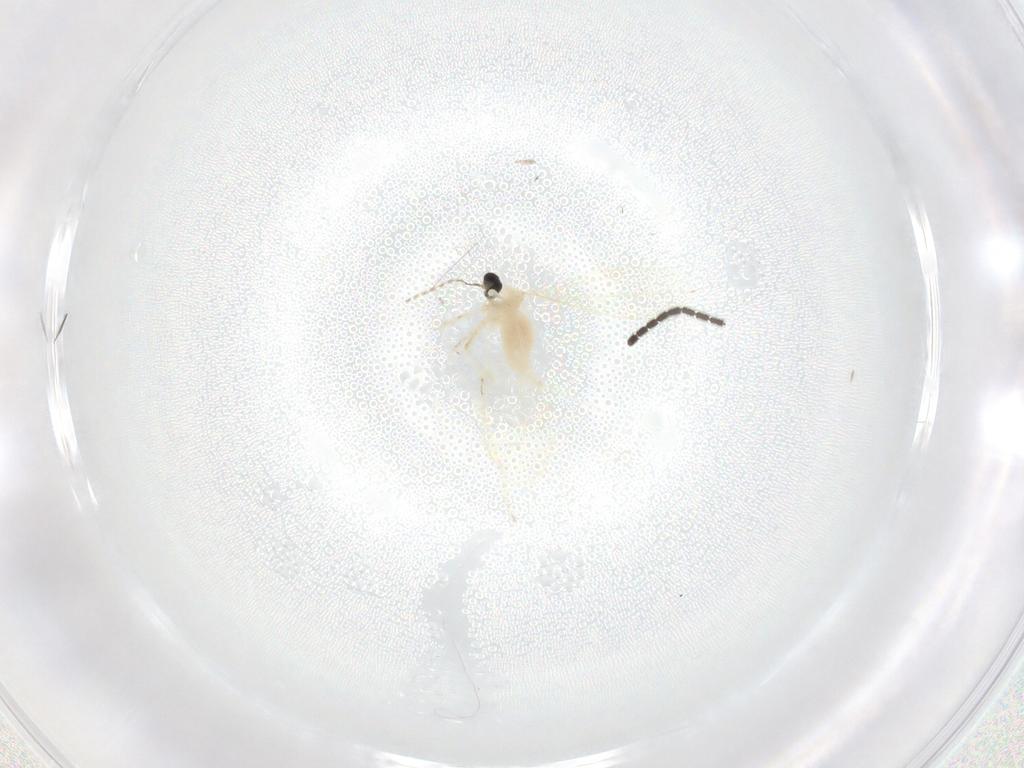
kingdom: Animalia
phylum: Arthropoda
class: Insecta
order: Diptera
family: Cecidomyiidae
